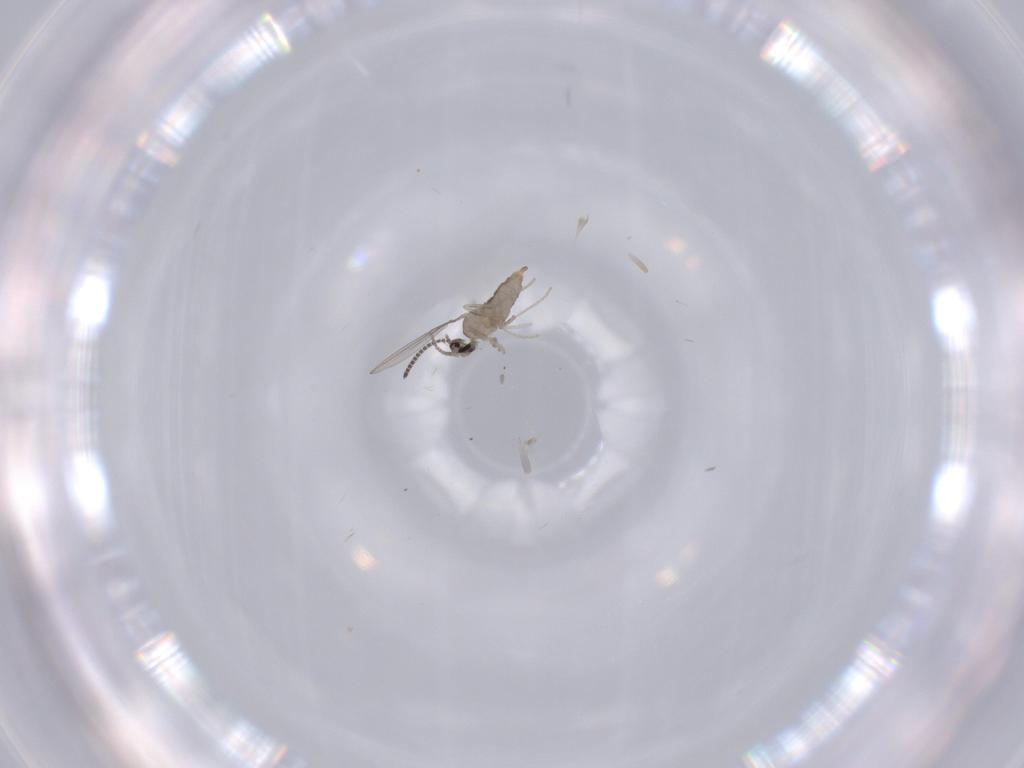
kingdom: Animalia
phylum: Arthropoda
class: Insecta
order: Diptera
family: Cecidomyiidae
